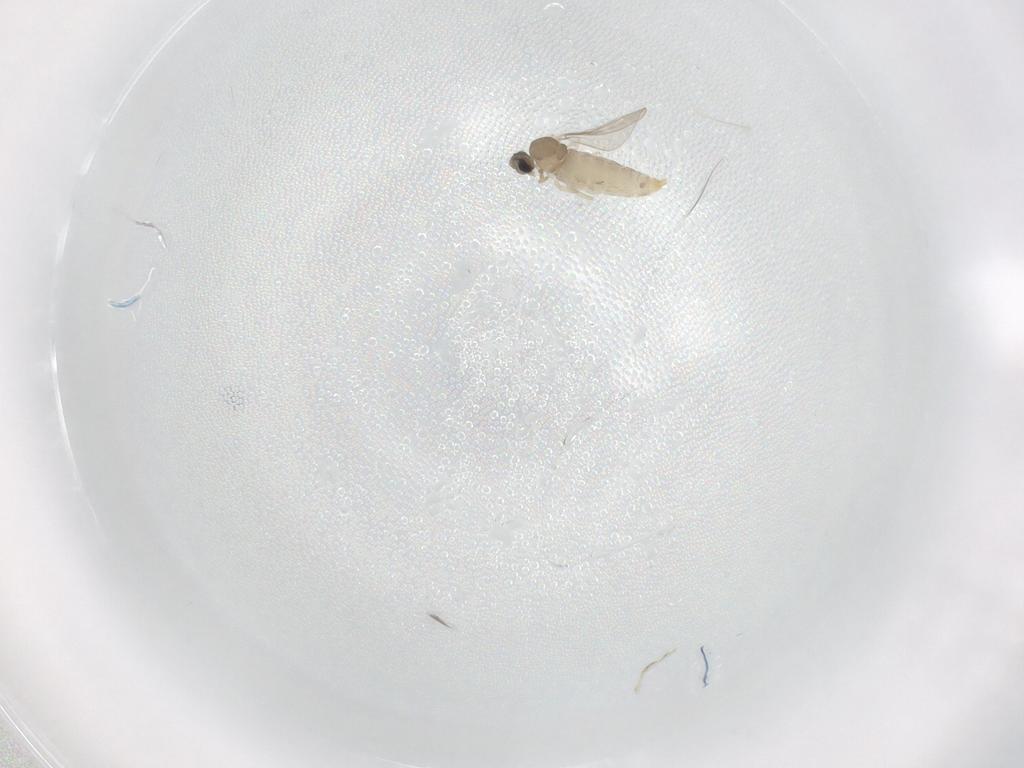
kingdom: Animalia
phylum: Arthropoda
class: Insecta
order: Diptera
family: Cecidomyiidae
